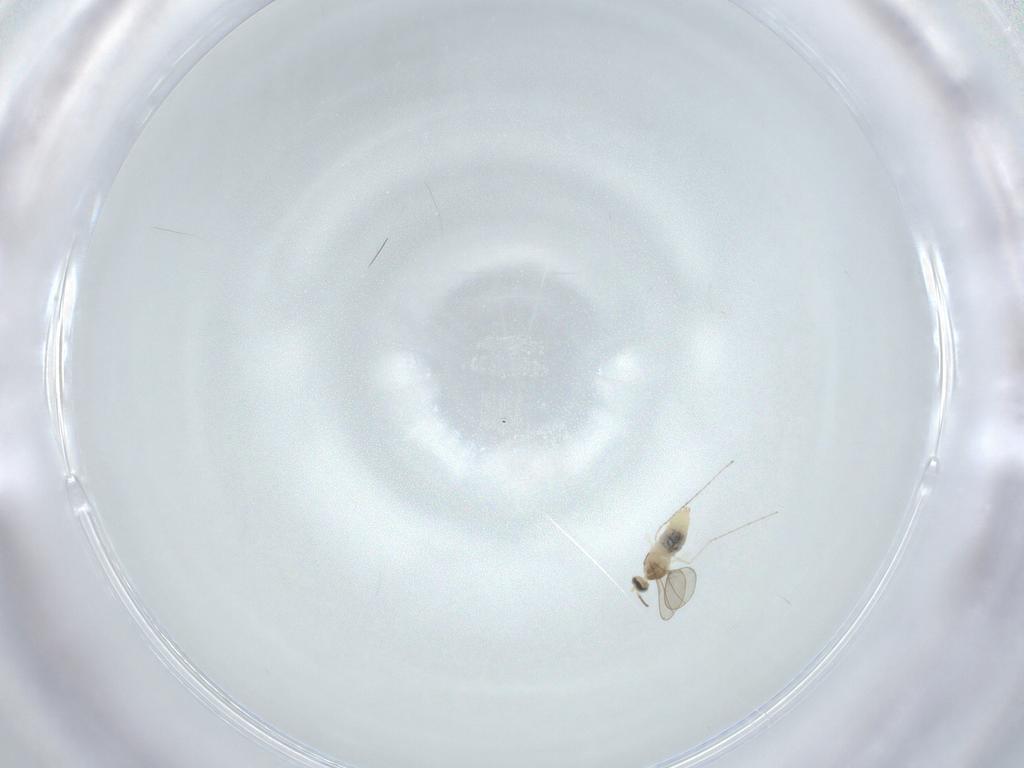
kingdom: Animalia
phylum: Arthropoda
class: Insecta
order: Diptera
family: Cecidomyiidae
